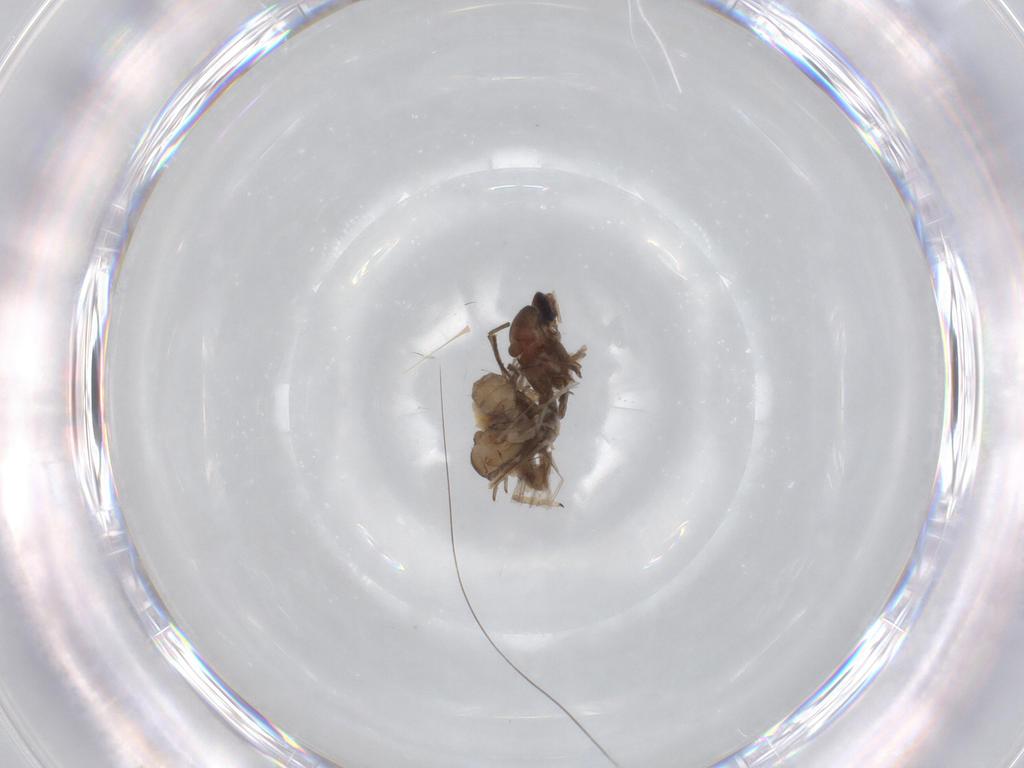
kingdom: Animalia
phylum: Arthropoda
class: Insecta
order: Diptera
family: Cecidomyiidae
